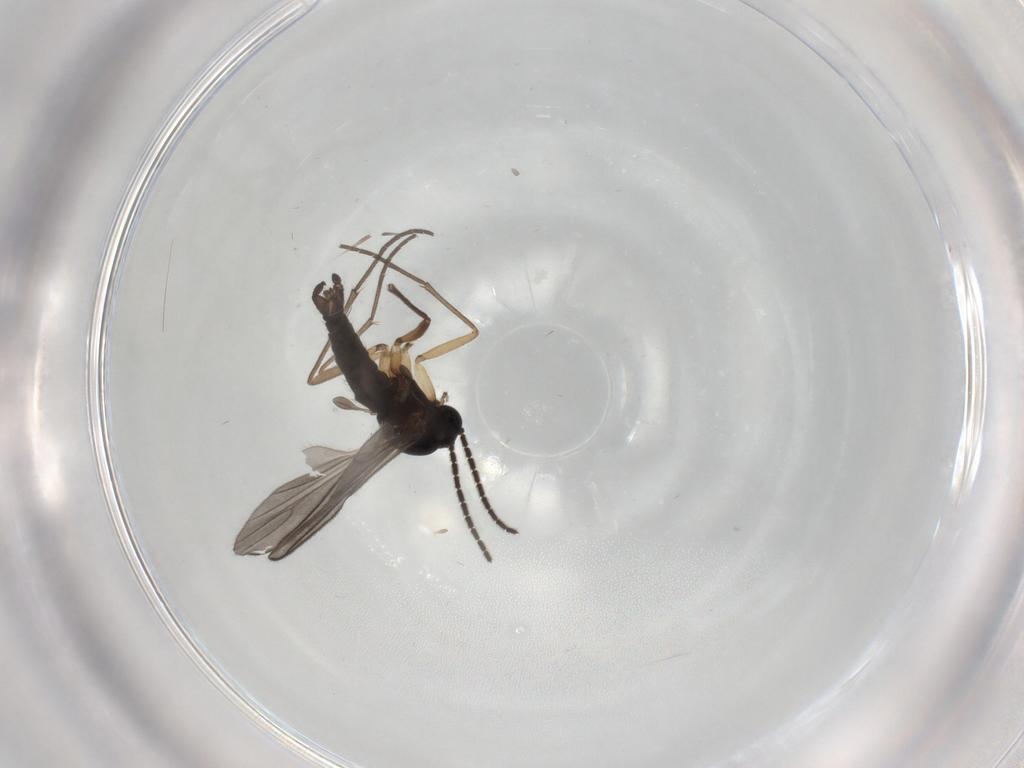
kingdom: Animalia
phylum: Arthropoda
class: Insecta
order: Diptera
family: Sciaridae
